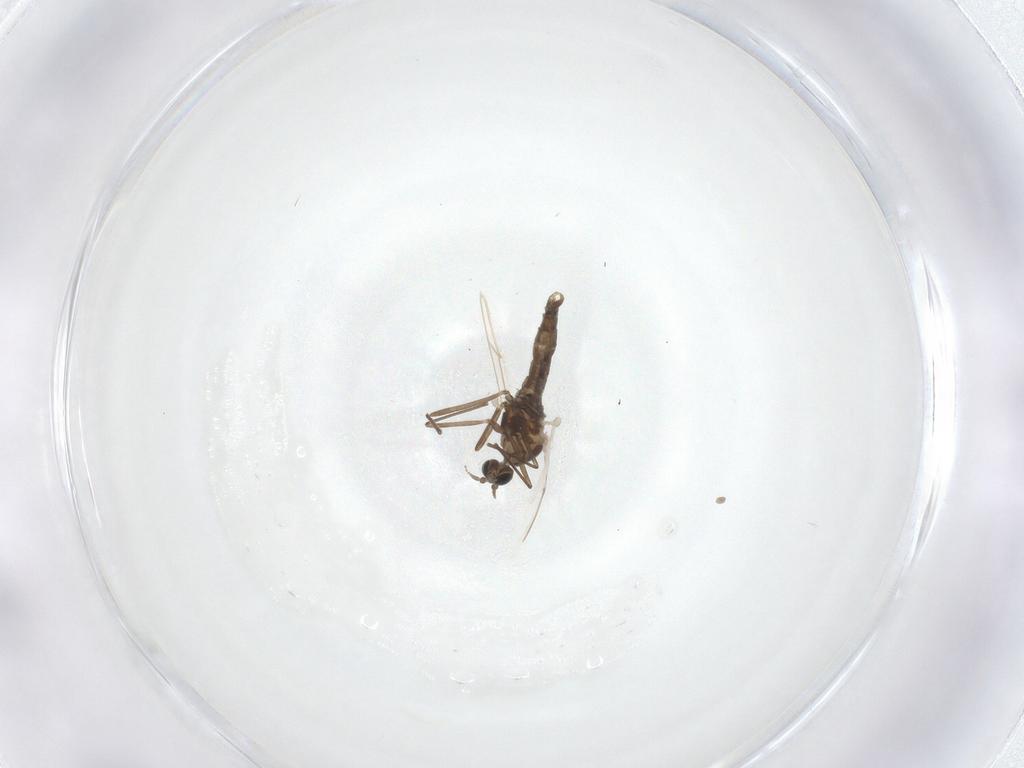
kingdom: Animalia
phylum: Arthropoda
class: Insecta
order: Diptera
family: Cecidomyiidae
